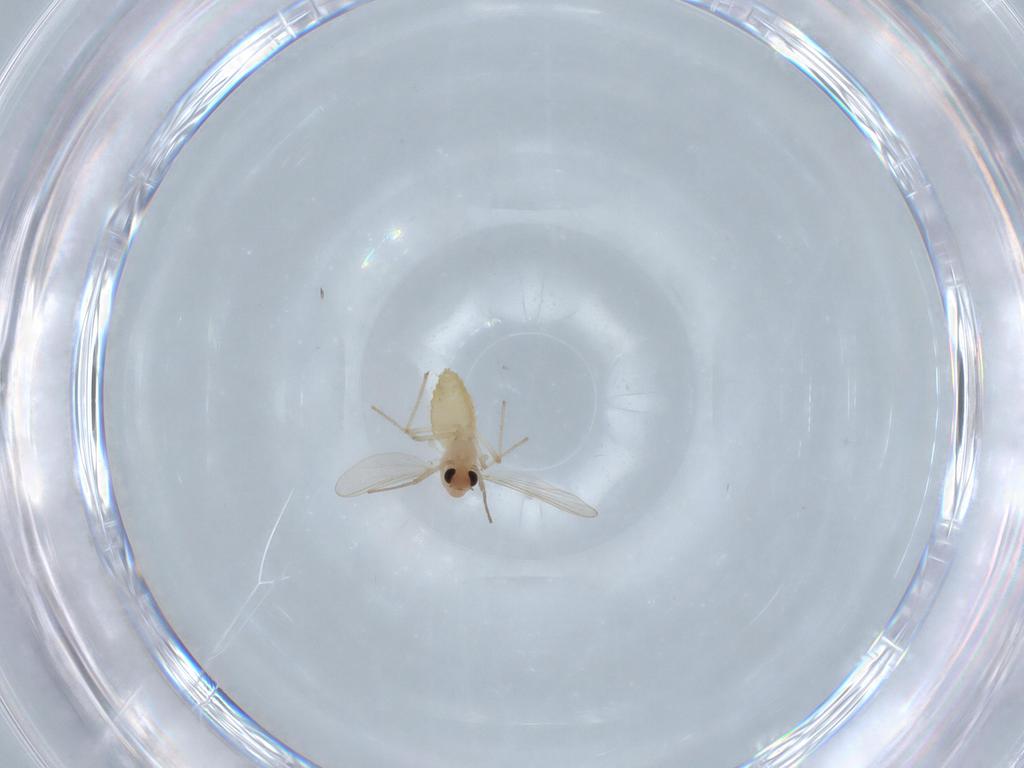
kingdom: Animalia
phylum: Arthropoda
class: Insecta
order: Diptera
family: Chironomidae
